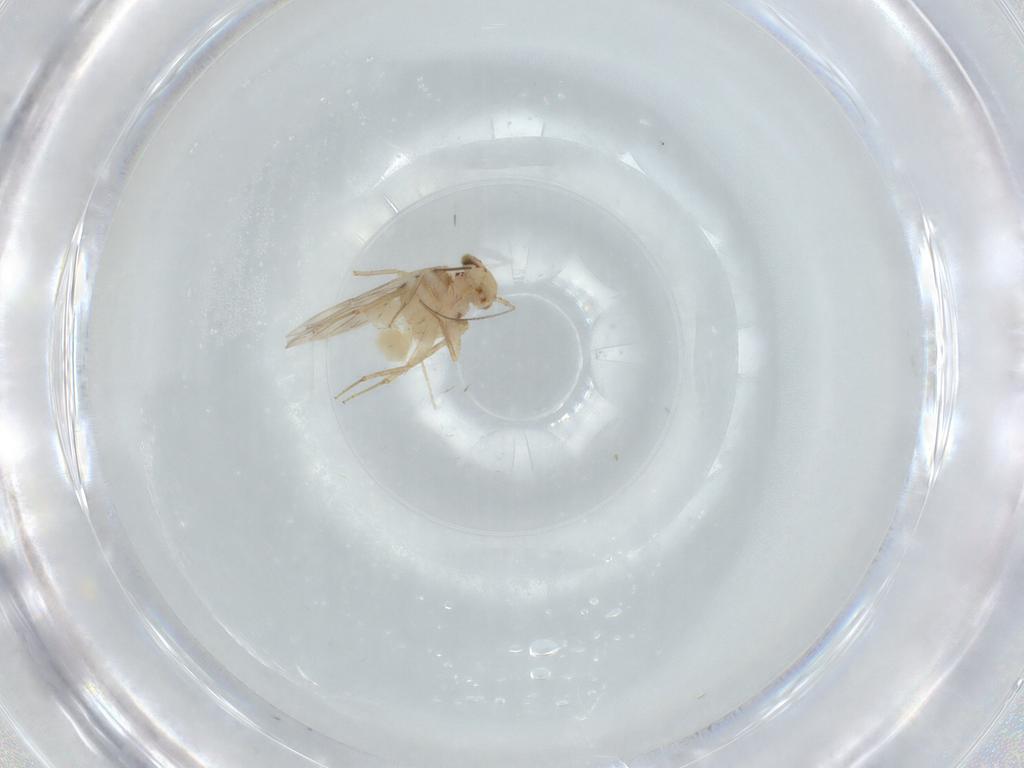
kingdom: Animalia
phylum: Arthropoda
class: Insecta
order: Psocodea
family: Lepidopsocidae
